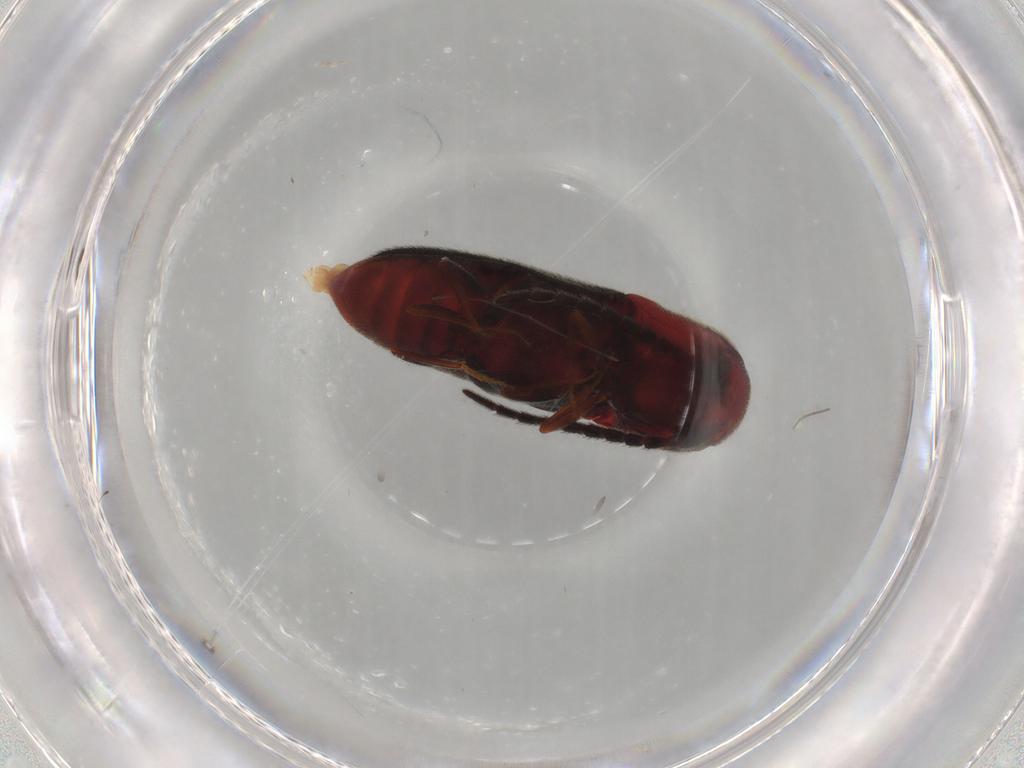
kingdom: Animalia
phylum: Arthropoda
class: Insecta
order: Coleoptera
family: Eucnemidae
